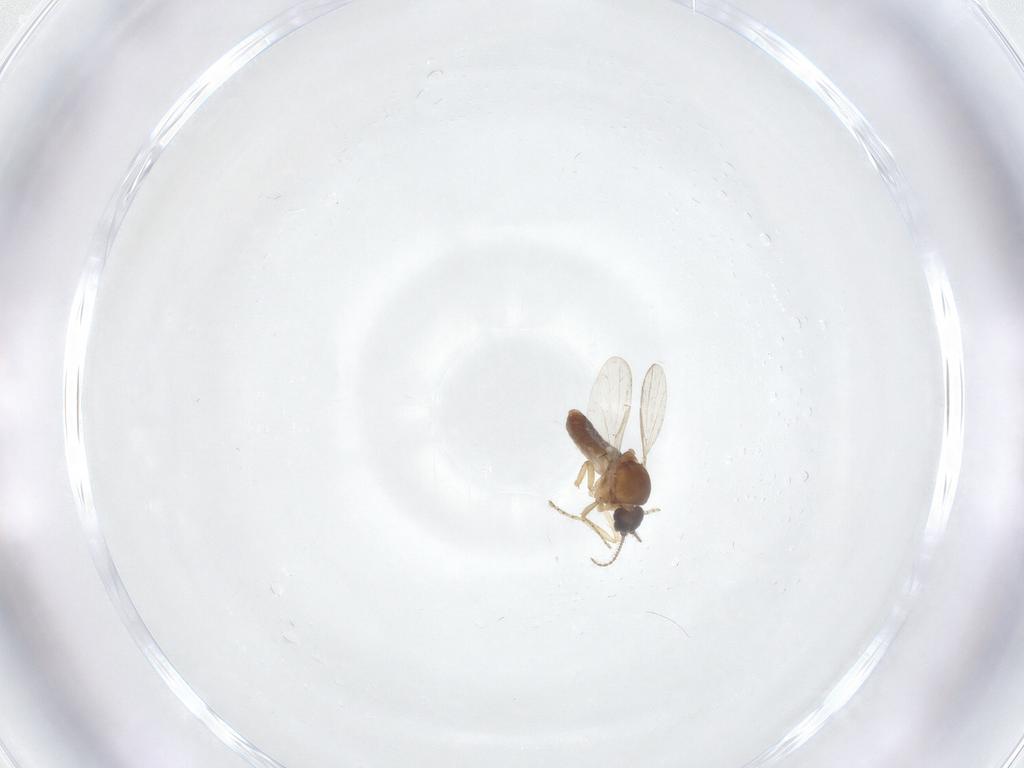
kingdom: Animalia
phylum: Arthropoda
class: Insecta
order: Diptera
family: Ceratopogonidae
